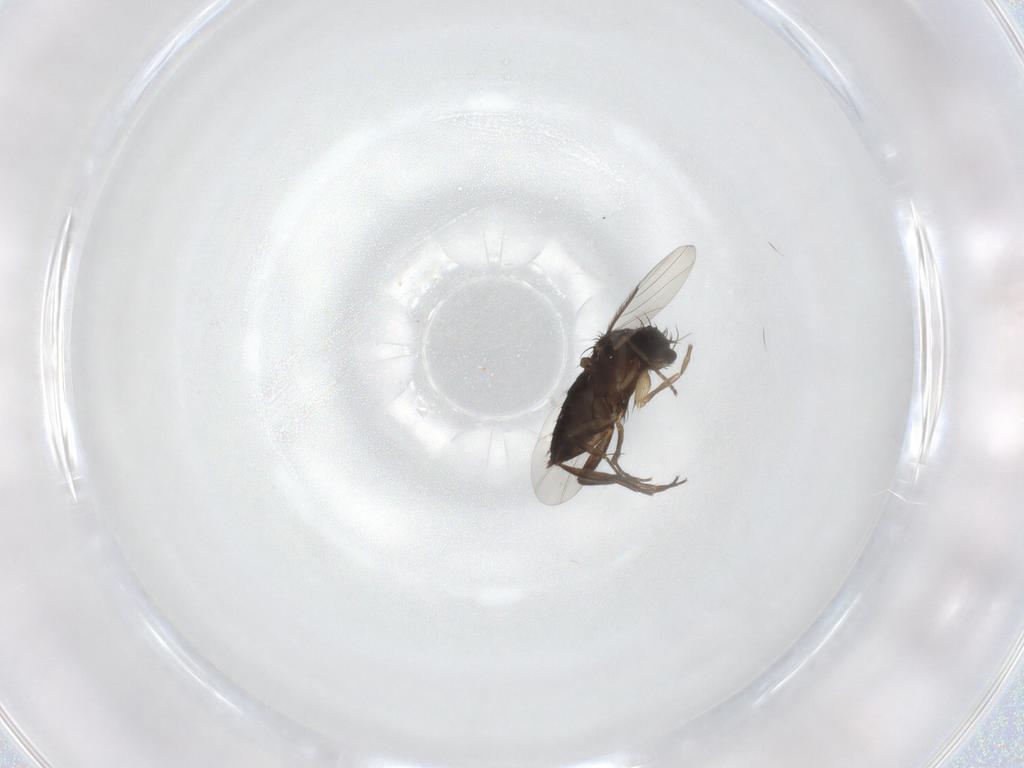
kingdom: Animalia
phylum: Arthropoda
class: Insecta
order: Diptera
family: Phoridae
